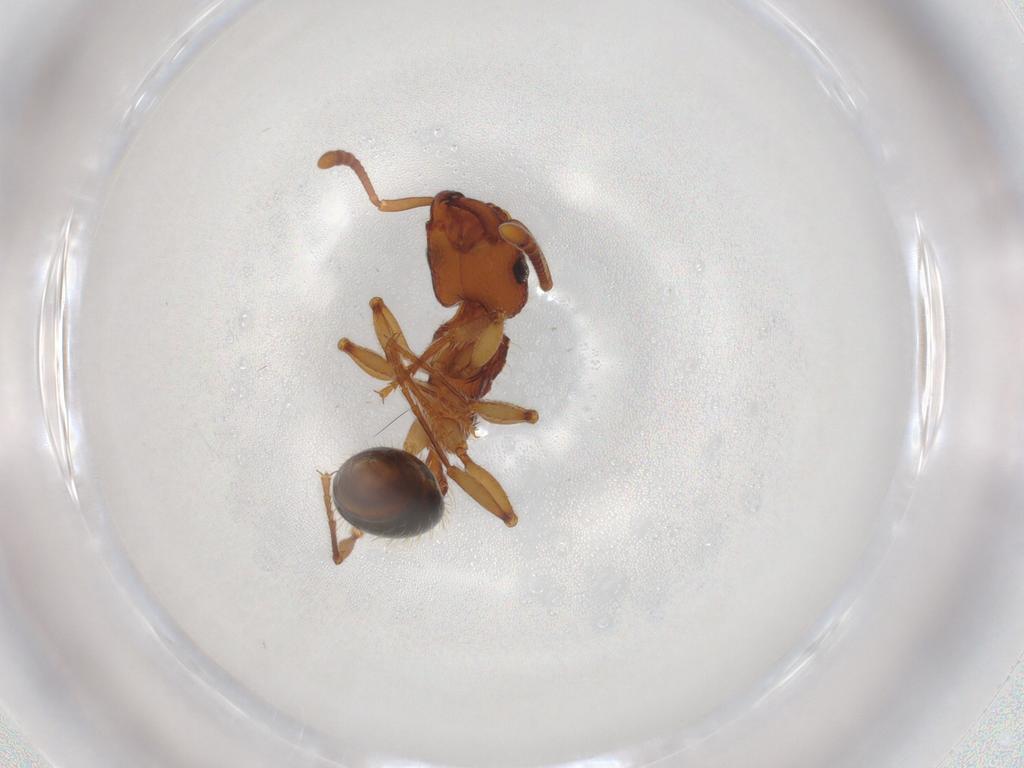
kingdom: Animalia
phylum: Arthropoda
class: Insecta
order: Hymenoptera
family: Formicidae
